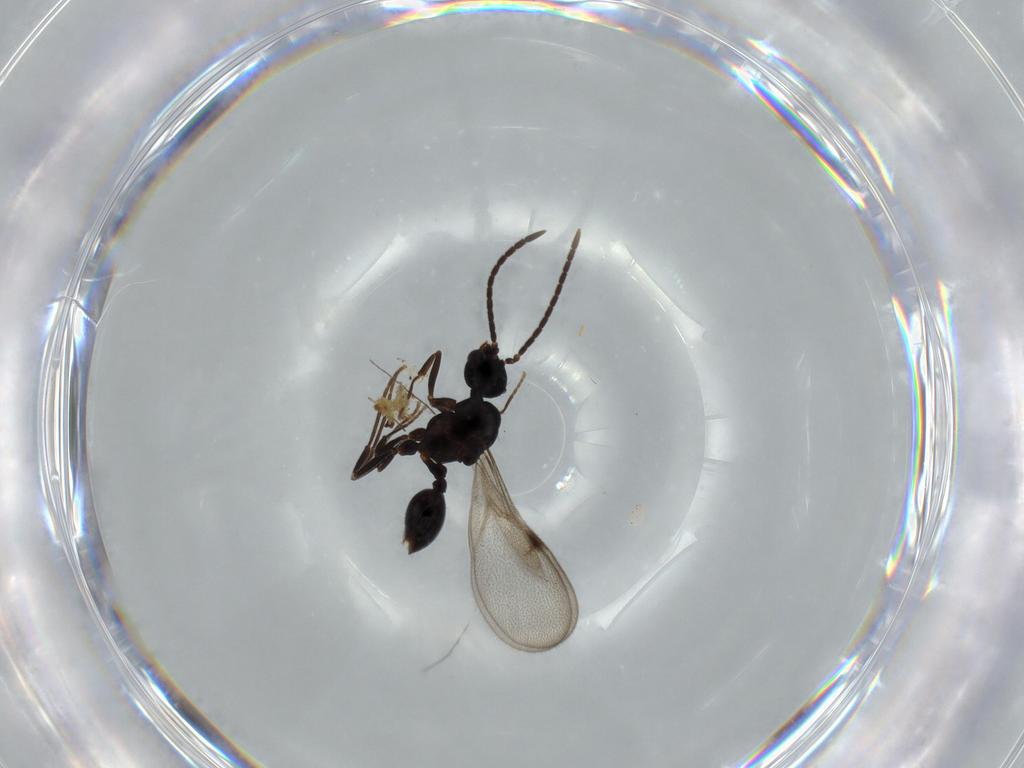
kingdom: Animalia
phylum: Arthropoda
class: Insecta
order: Hymenoptera
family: Formicidae
